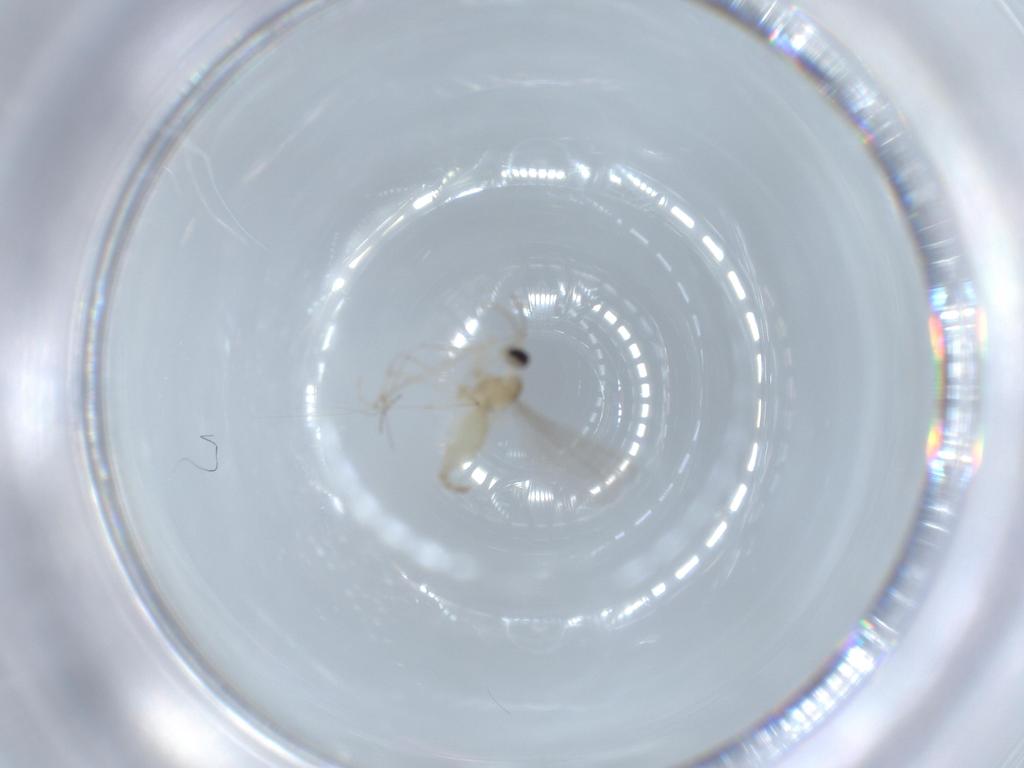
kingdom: Animalia
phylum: Arthropoda
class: Insecta
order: Diptera
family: Cecidomyiidae
